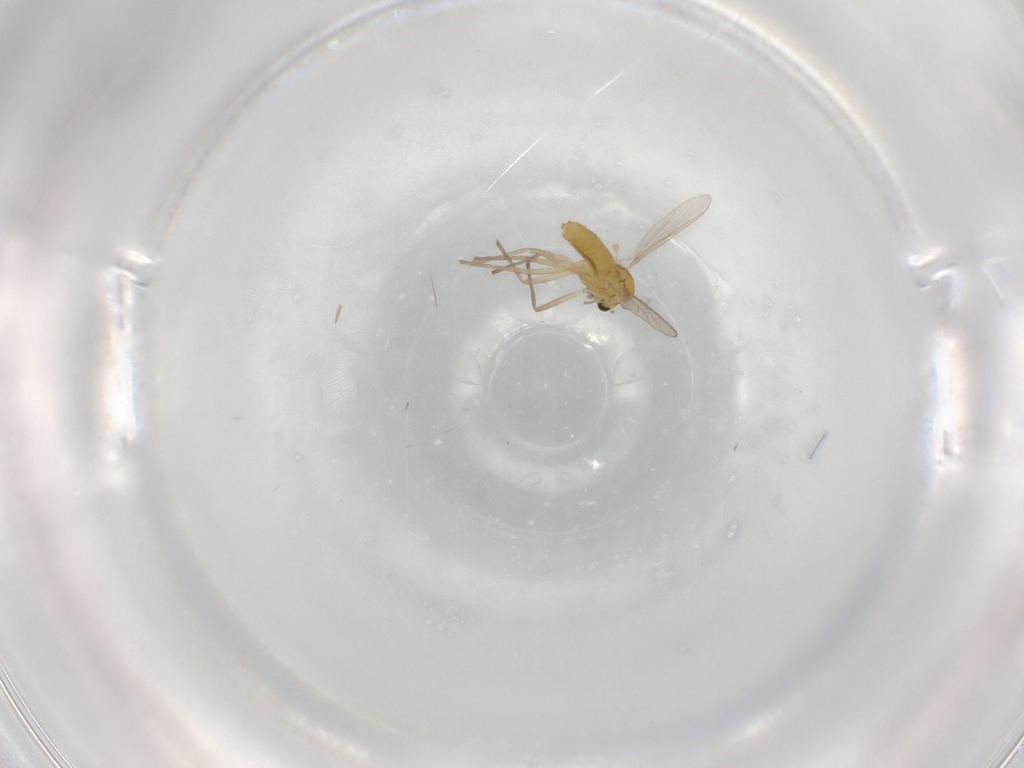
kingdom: Animalia
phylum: Arthropoda
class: Insecta
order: Diptera
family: Chironomidae
